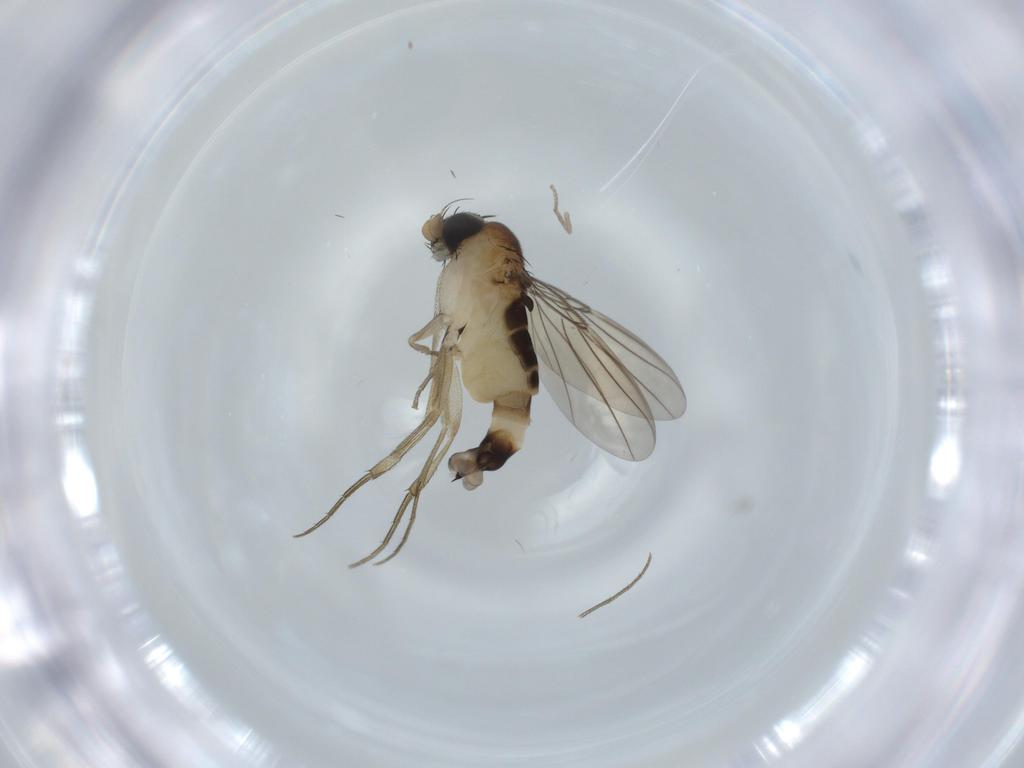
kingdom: Animalia
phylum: Arthropoda
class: Insecta
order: Diptera
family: Phoridae
